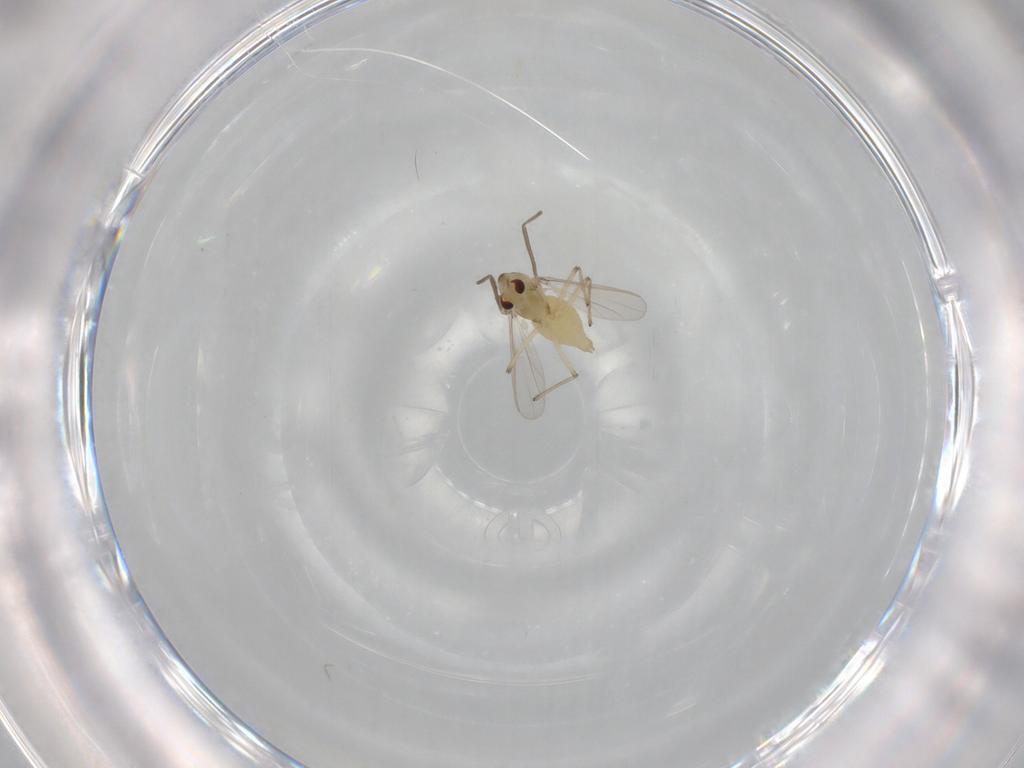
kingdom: Animalia
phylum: Arthropoda
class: Insecta
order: Diptera
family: Chironomidae
